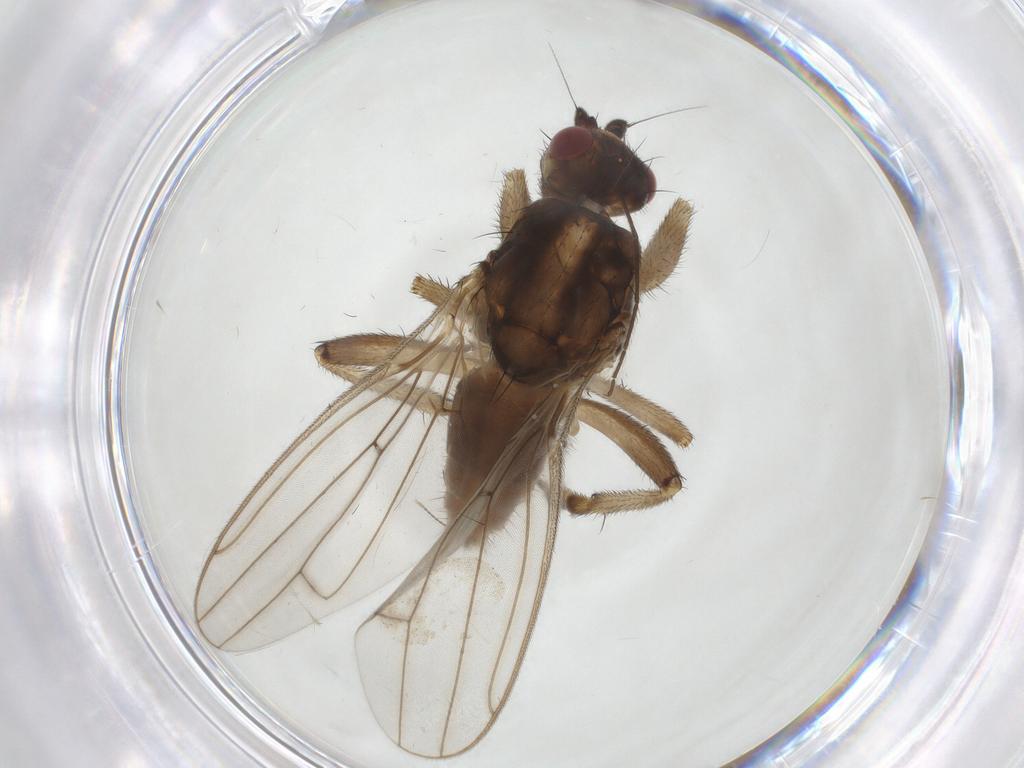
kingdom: Animalia
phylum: Arthropoda
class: Insecta
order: Diptera
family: Sphaeroceridae
